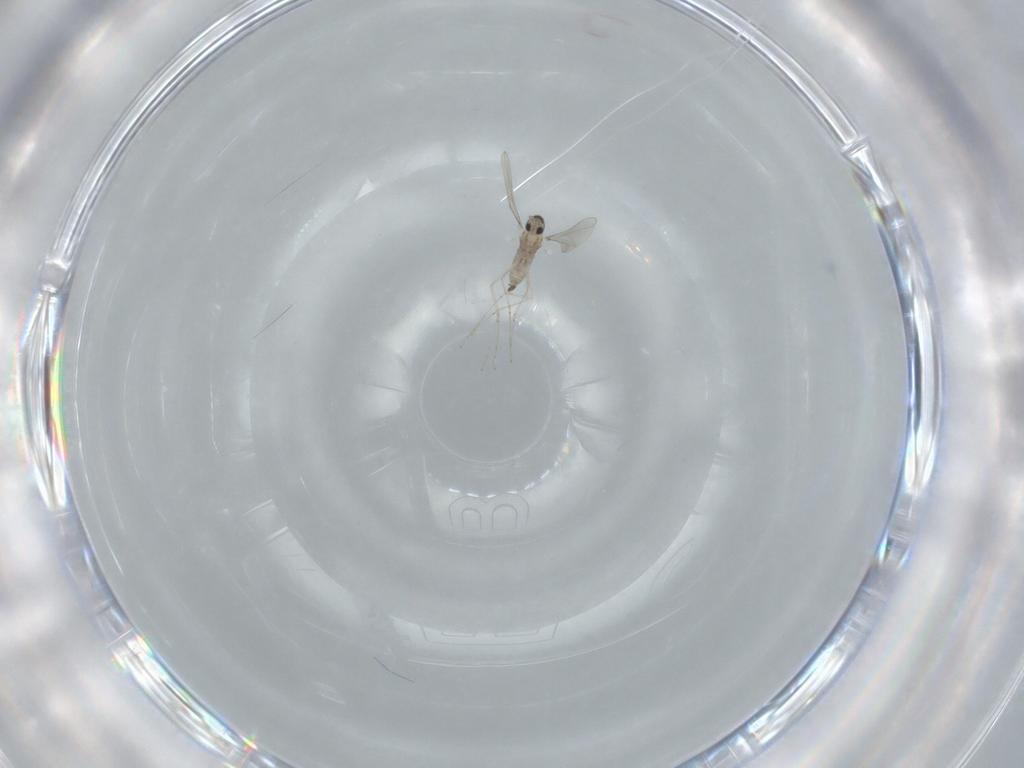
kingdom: Animalia
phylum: Arthropoda
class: Insecta
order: Diptera
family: Cecidomyiidae
